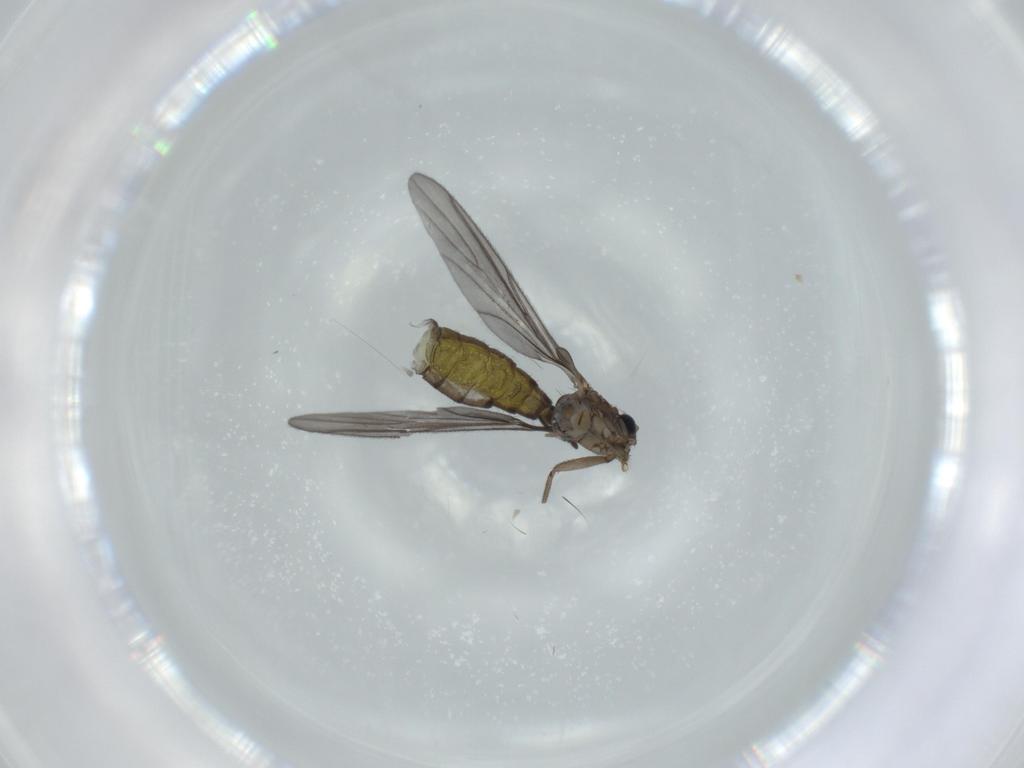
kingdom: Animalia
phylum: Arthropoda
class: Insecta
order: Diptera
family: Sciaridae
